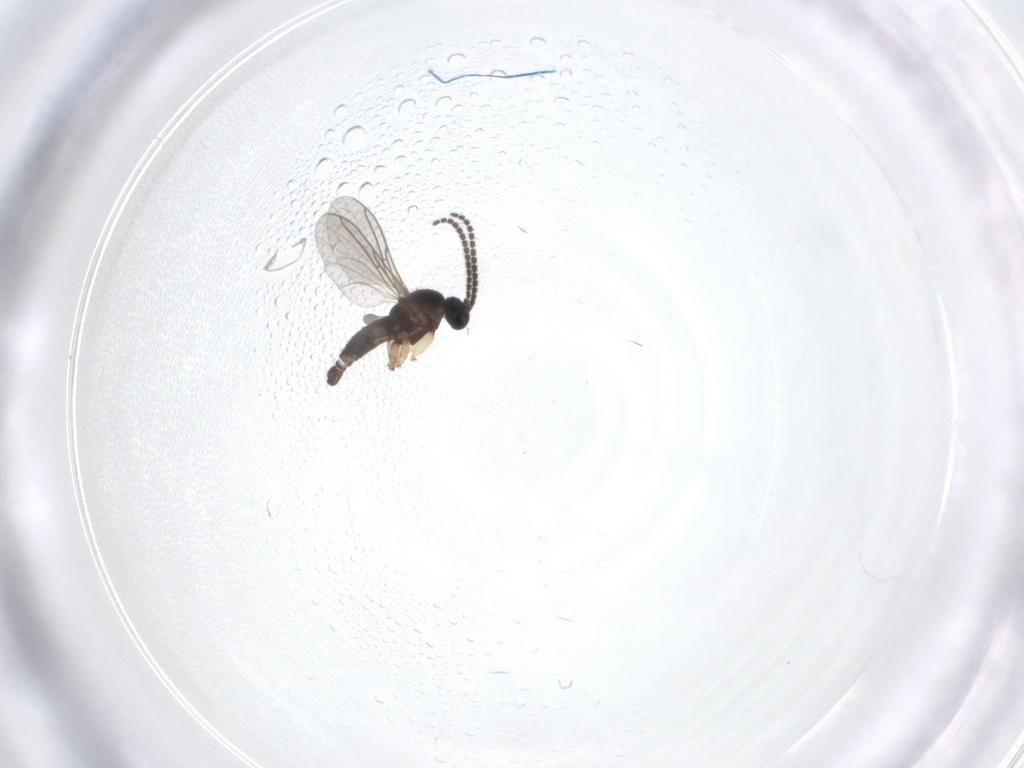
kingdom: Animalia
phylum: Arthropoda
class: Insecta
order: Diptera
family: Sciaridae
